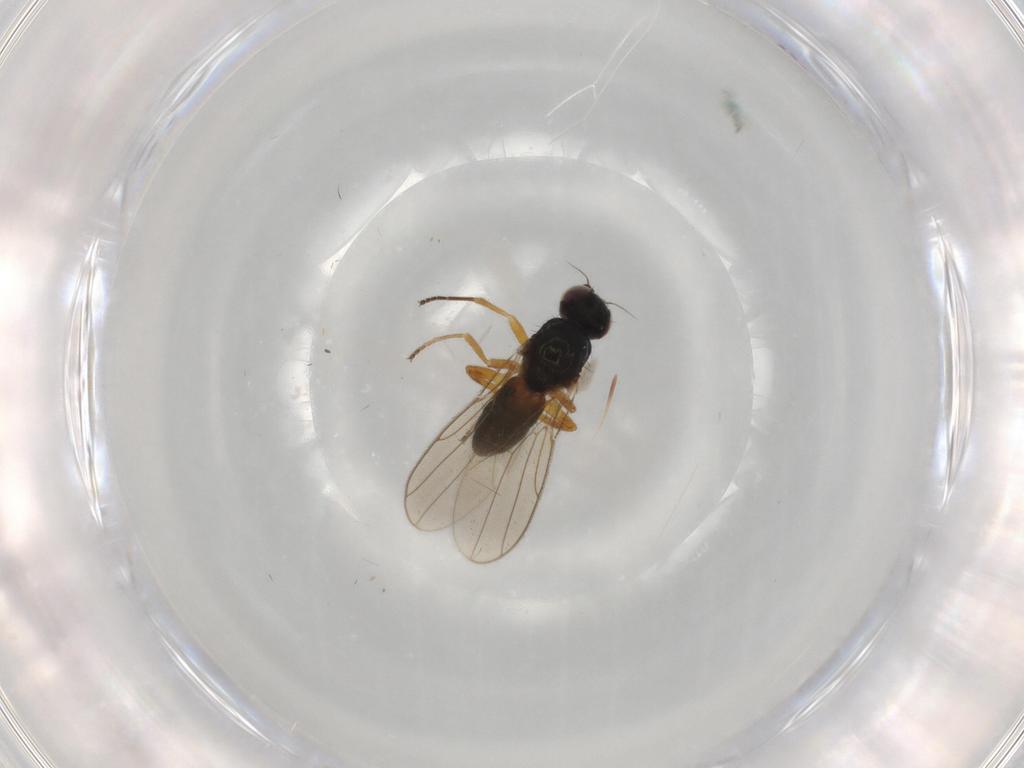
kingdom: Animalia
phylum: Arthropoda
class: Insecta
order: Diptera
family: Chloropidae
